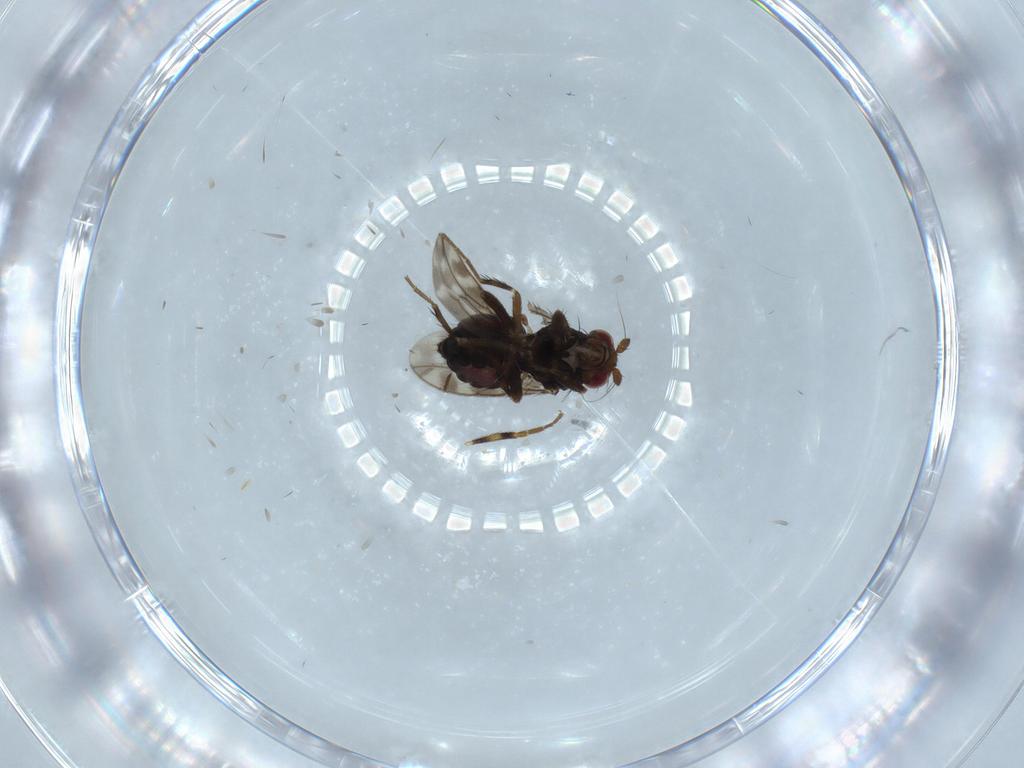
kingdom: Animalia
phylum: Arthropoda
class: Insecta
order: Diptera
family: Sphaeroceridae
